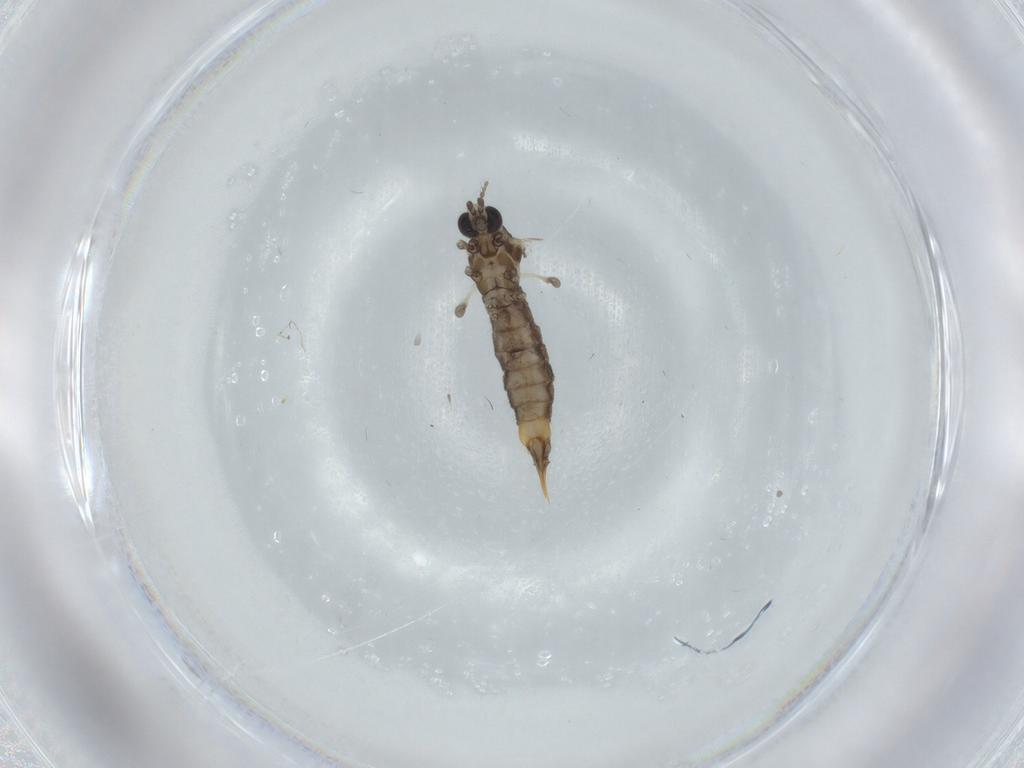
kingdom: Animalia
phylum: Arthropoda
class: Insecta
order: Diptera
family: Limoniidae
